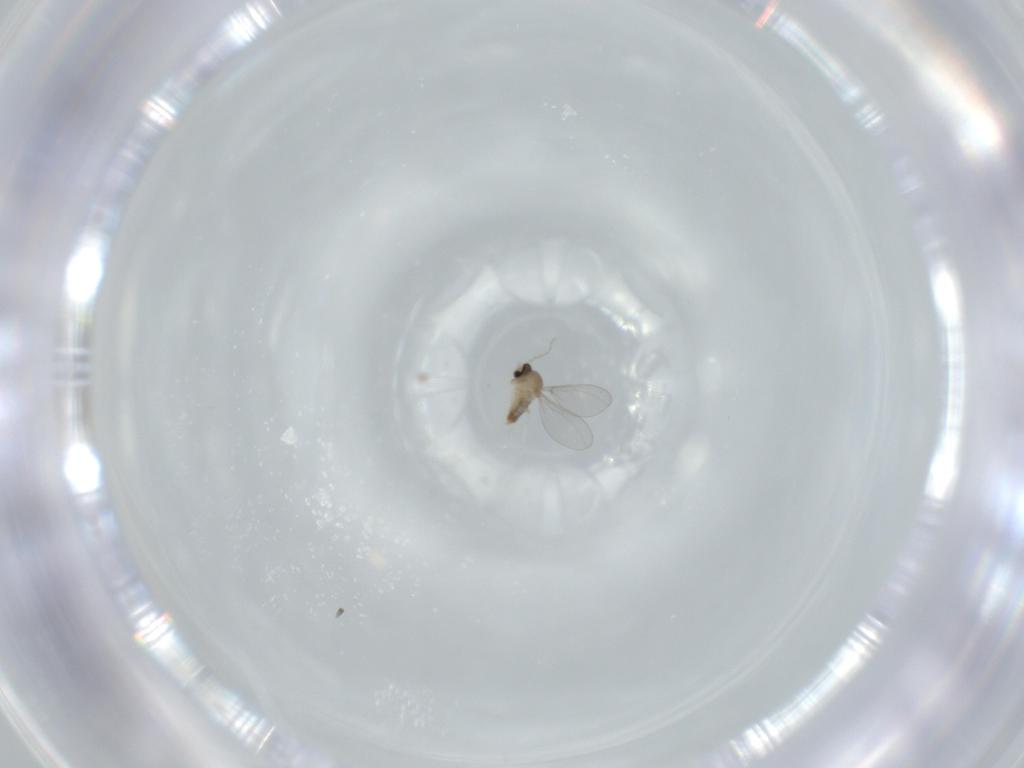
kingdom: Animalia
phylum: Arthropoda
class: Insecta
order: Diptera
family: Cecidomyiidae
